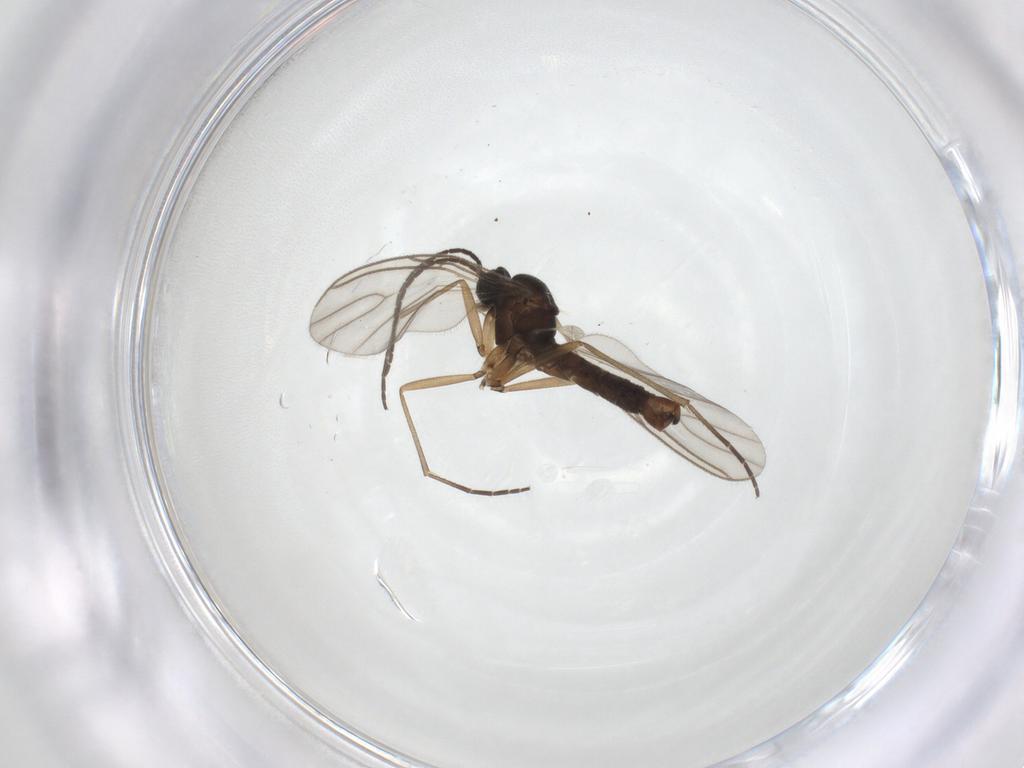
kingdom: Animalia
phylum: Arthropoda
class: Insecta
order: Diptera
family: Sciaridae
